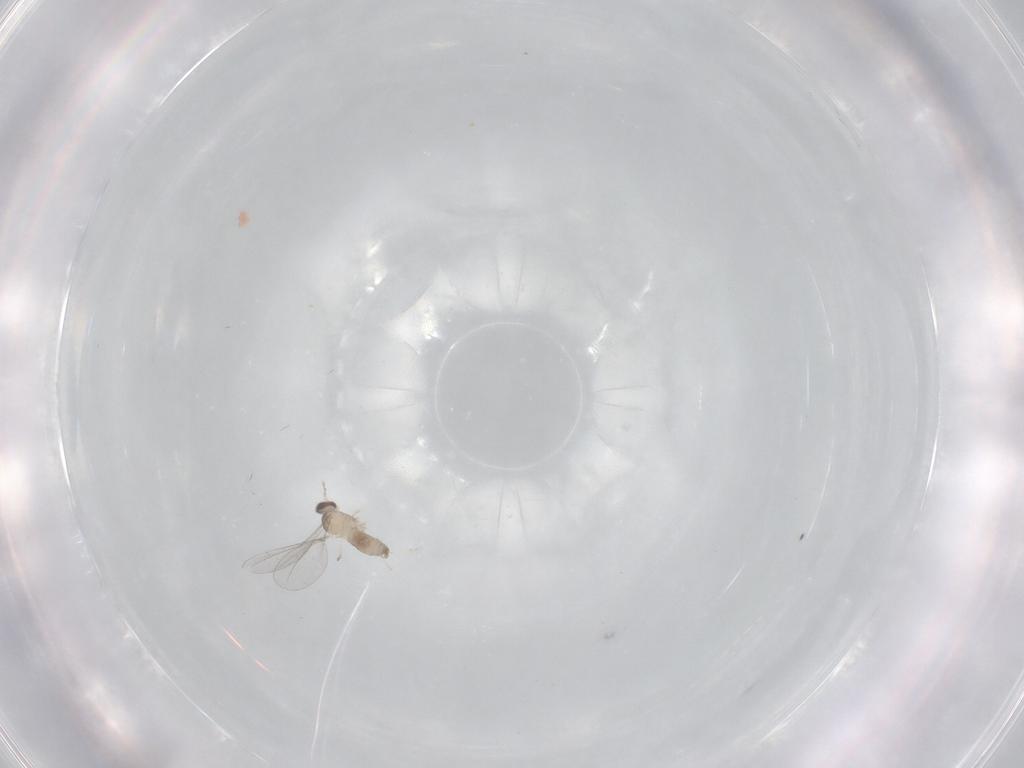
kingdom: Animalia
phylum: Arthropoda
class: Insecta
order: Diptera
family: Cecidomyiidae
